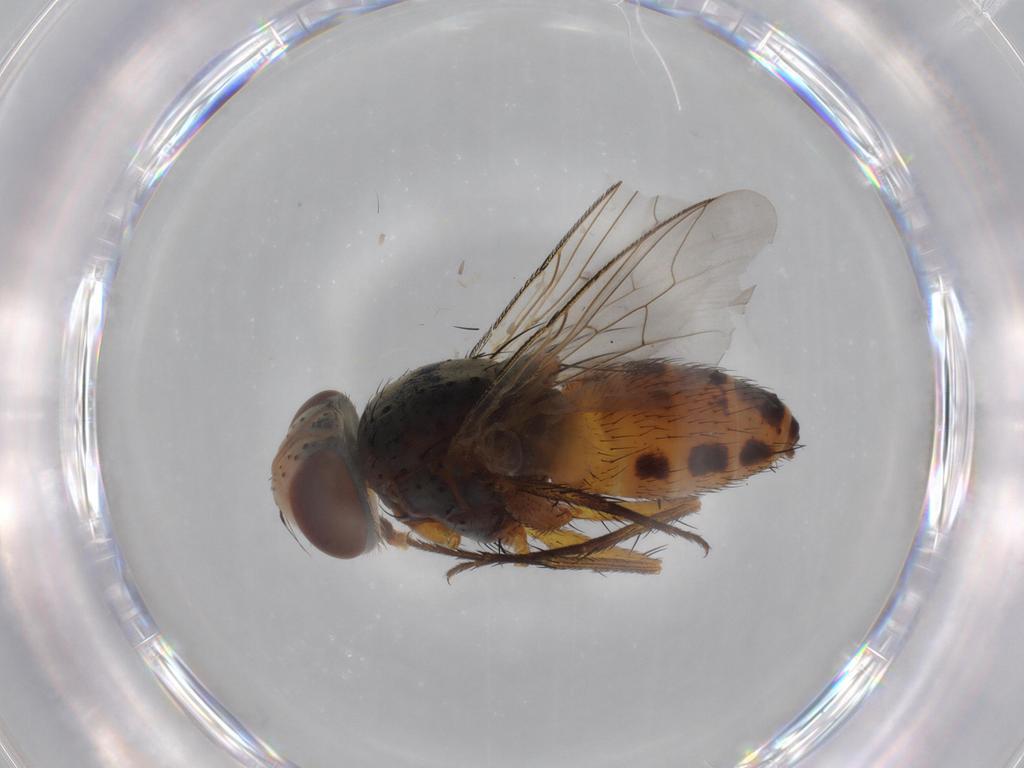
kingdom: Animalia
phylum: Arthropoda
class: Insecta
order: Diptera
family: Sarcophagidae
